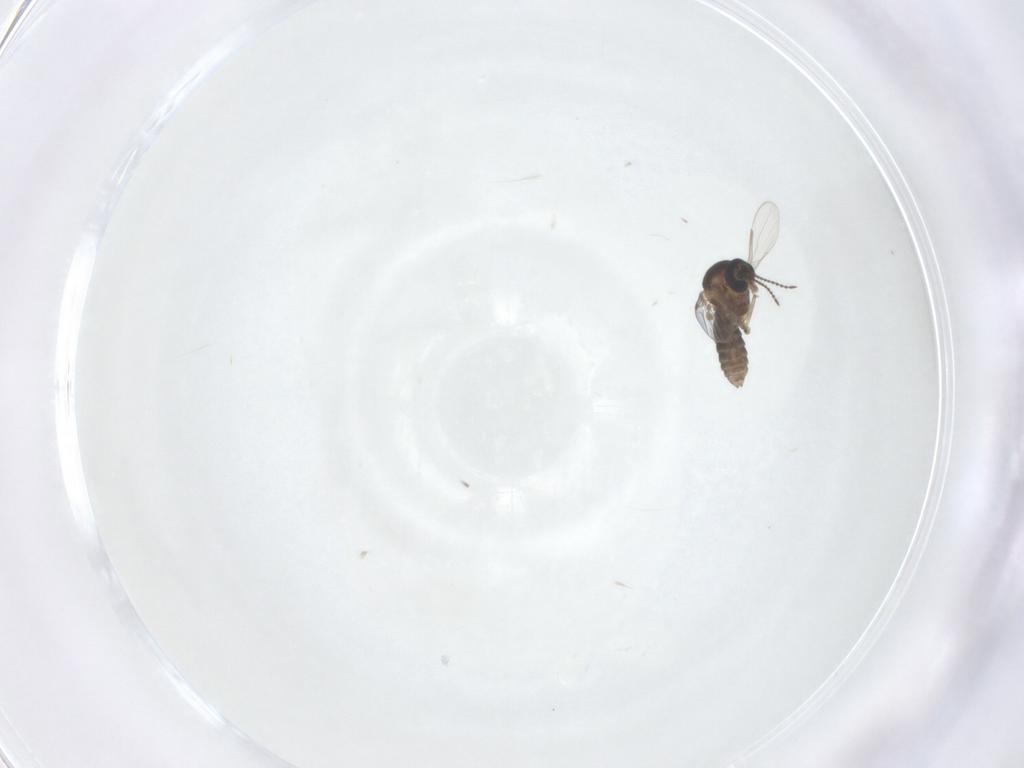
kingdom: Animalia
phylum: Arthropoda
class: Insecta
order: Diptera
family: Ceratopogonidae
